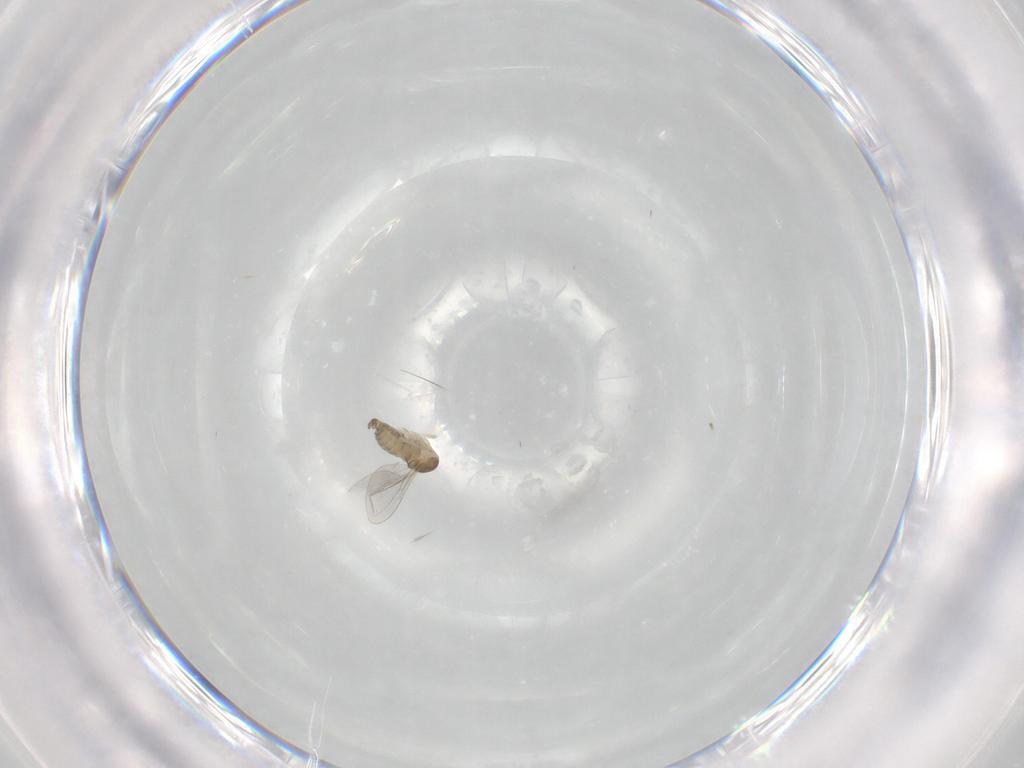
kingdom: Animalia
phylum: Arthropoda
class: Insecta
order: Diptera
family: Cecidomyiidae
